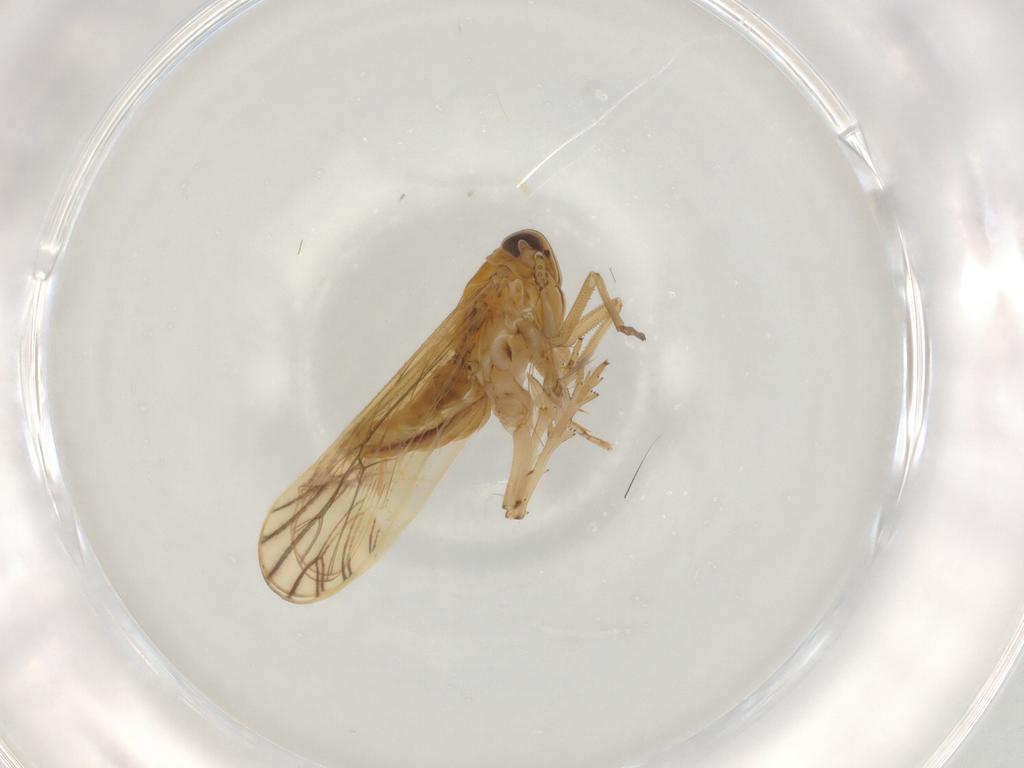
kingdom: Animalia
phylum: Arthropoda
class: Insecta
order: Hemiptera
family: Delphacidae
